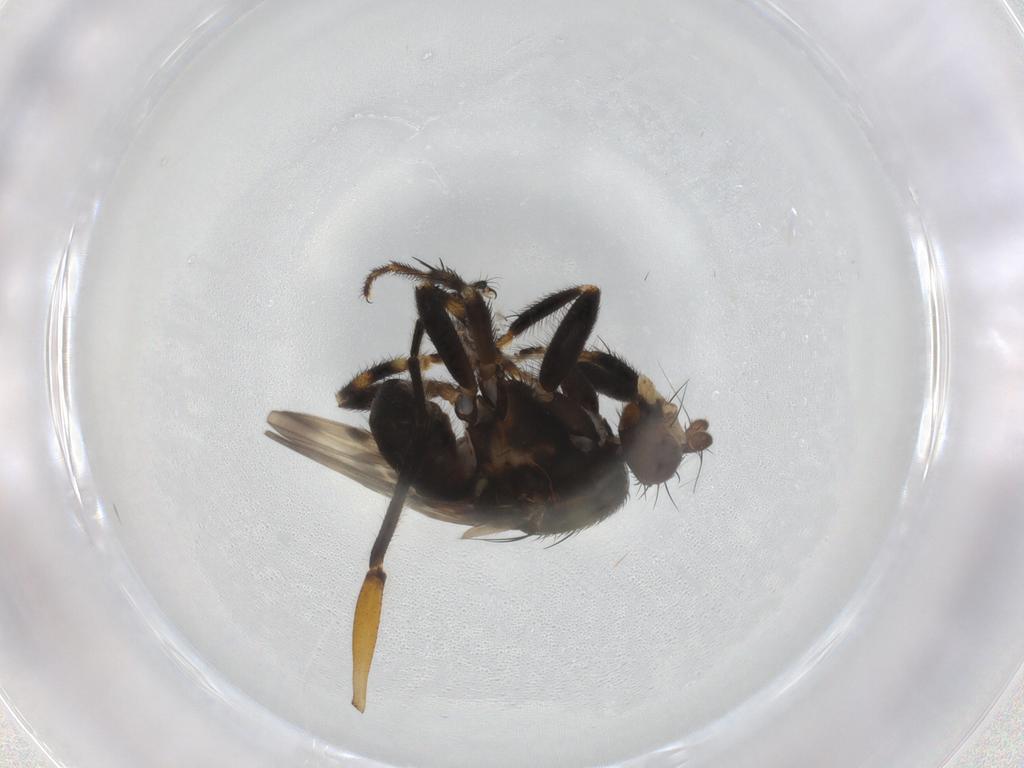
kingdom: Animalia
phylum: Arthropoda
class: Insecta
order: Diptera
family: Sphaeroceridae
